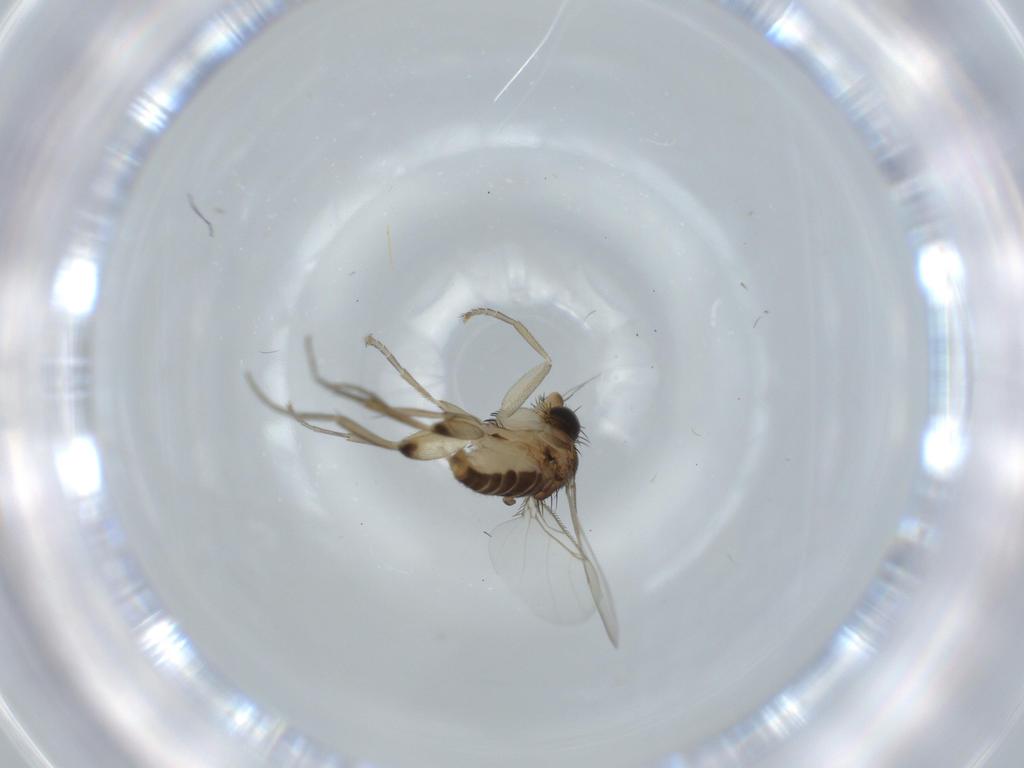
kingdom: Animalia
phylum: Arthropoda
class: Insecta
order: Diptera
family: Phoridae
